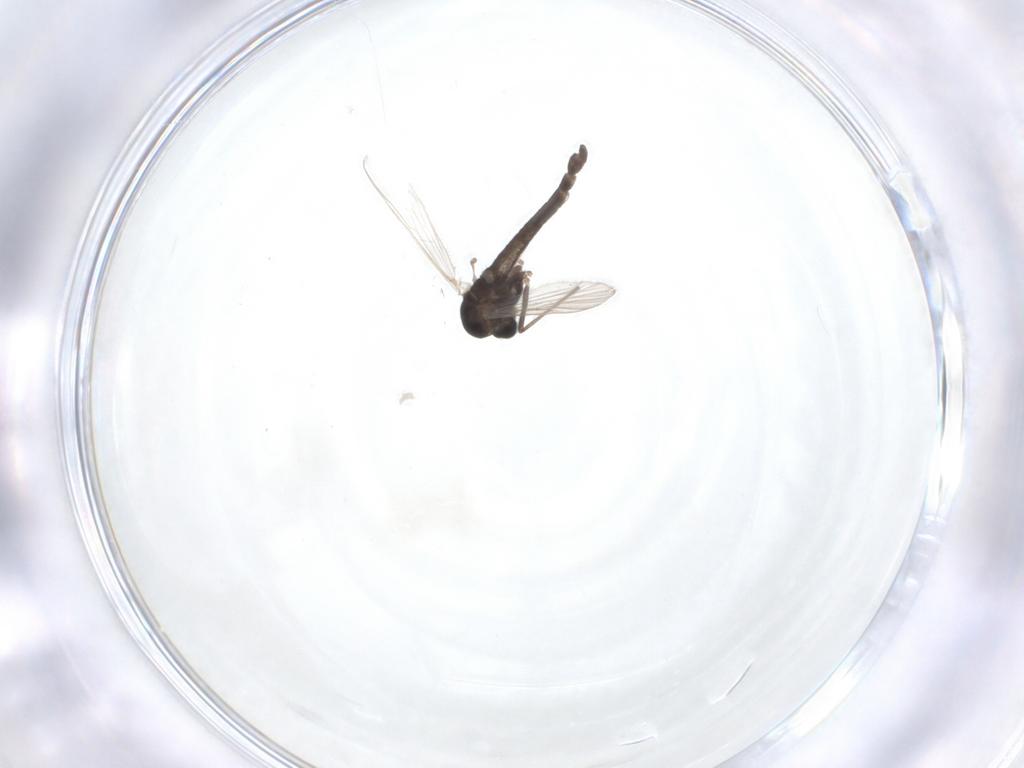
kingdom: Animalia
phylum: Arthropoda
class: Insecta
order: Diptera
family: Chironomidae
